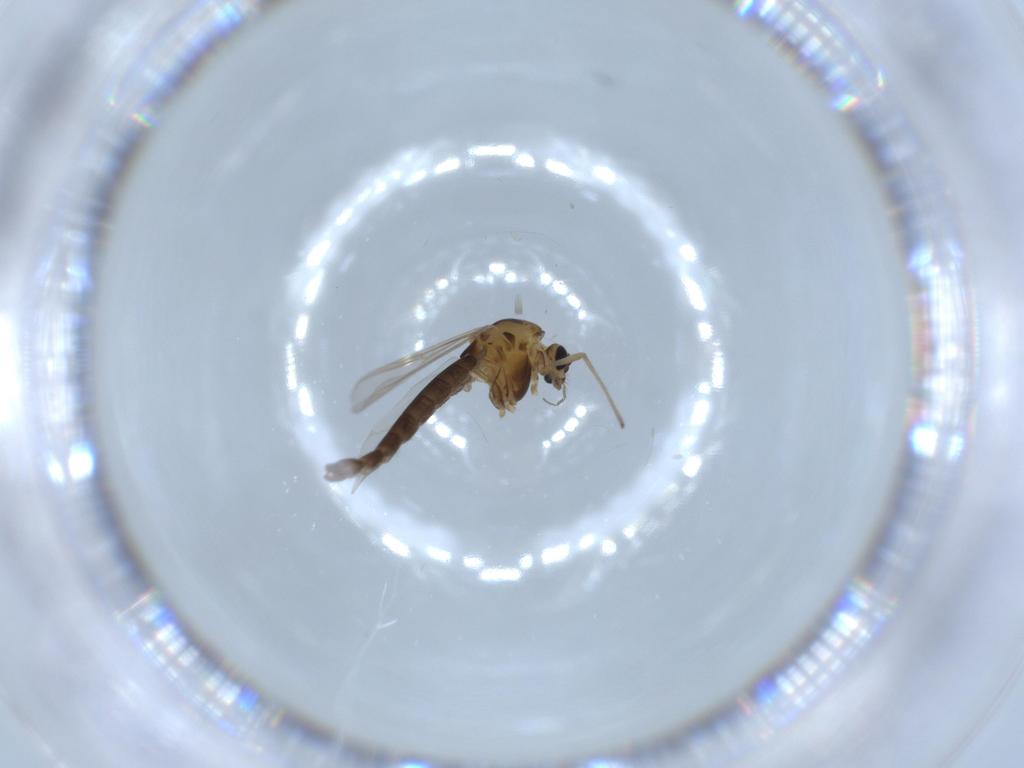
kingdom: Animalia
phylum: Arthropoda
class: Insecta
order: Diptera
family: Chironomidae
